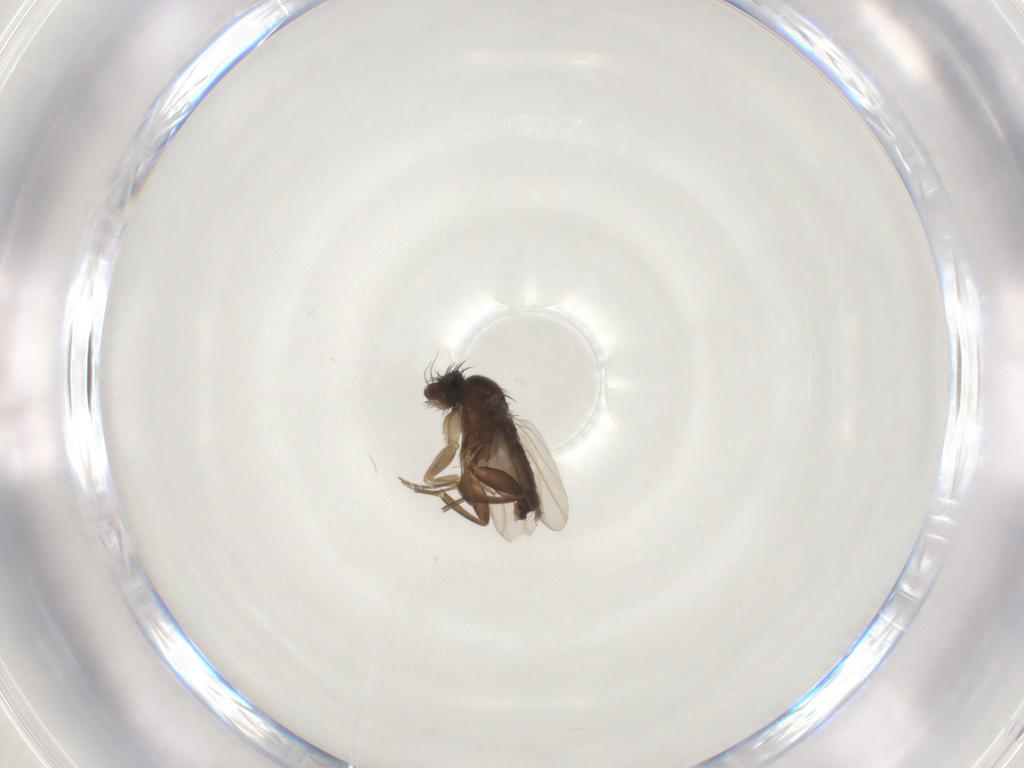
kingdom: Animalia
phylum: Arthropoda
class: Insecta
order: Diptera
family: Phoridae
